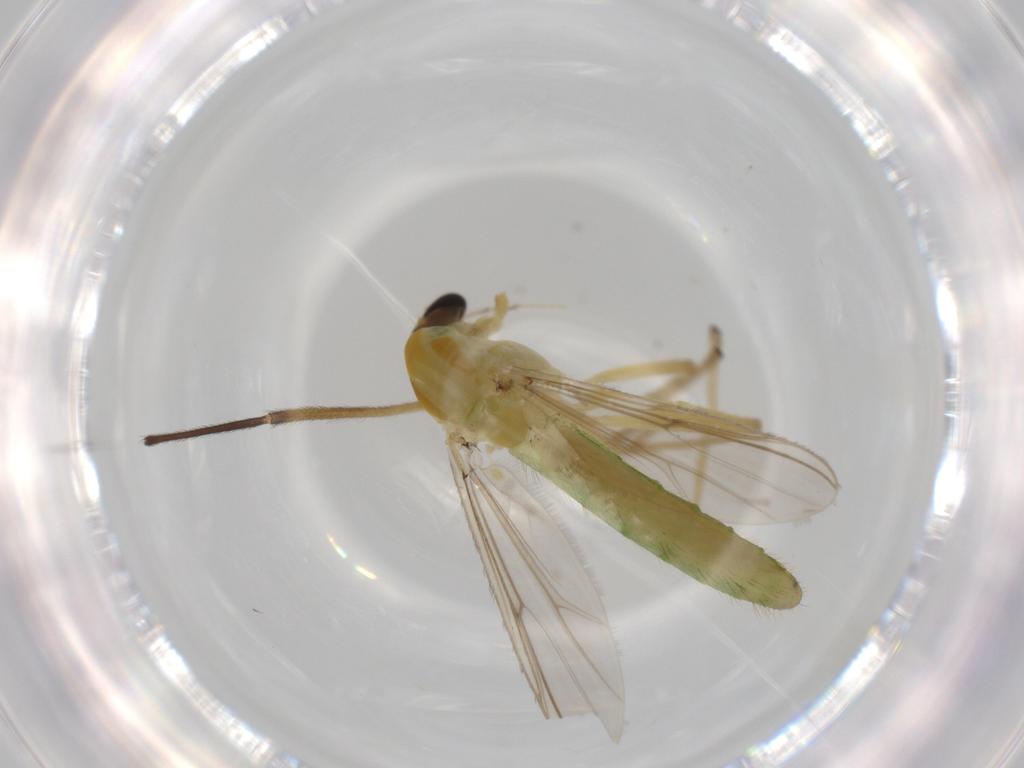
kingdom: Animalia
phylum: Arthropoda
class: Insecta
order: Diptera
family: Chironomidae
